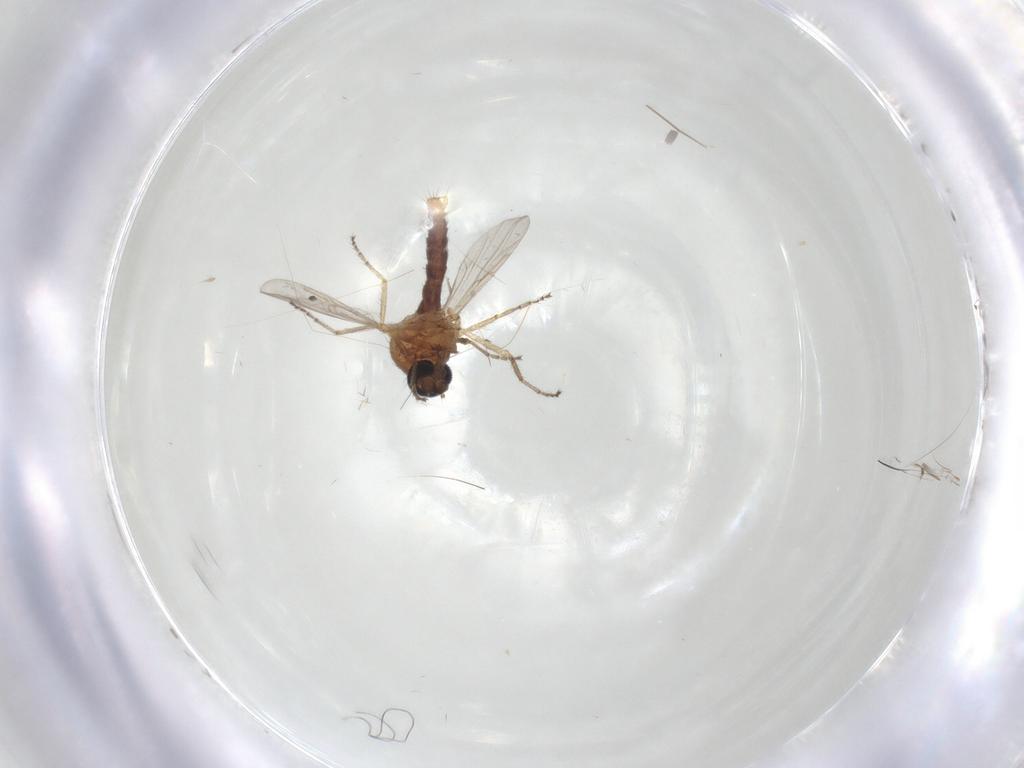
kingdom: Animalia
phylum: Arthropoda
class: Insecta
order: Diptera
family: Ceratopogonidae
